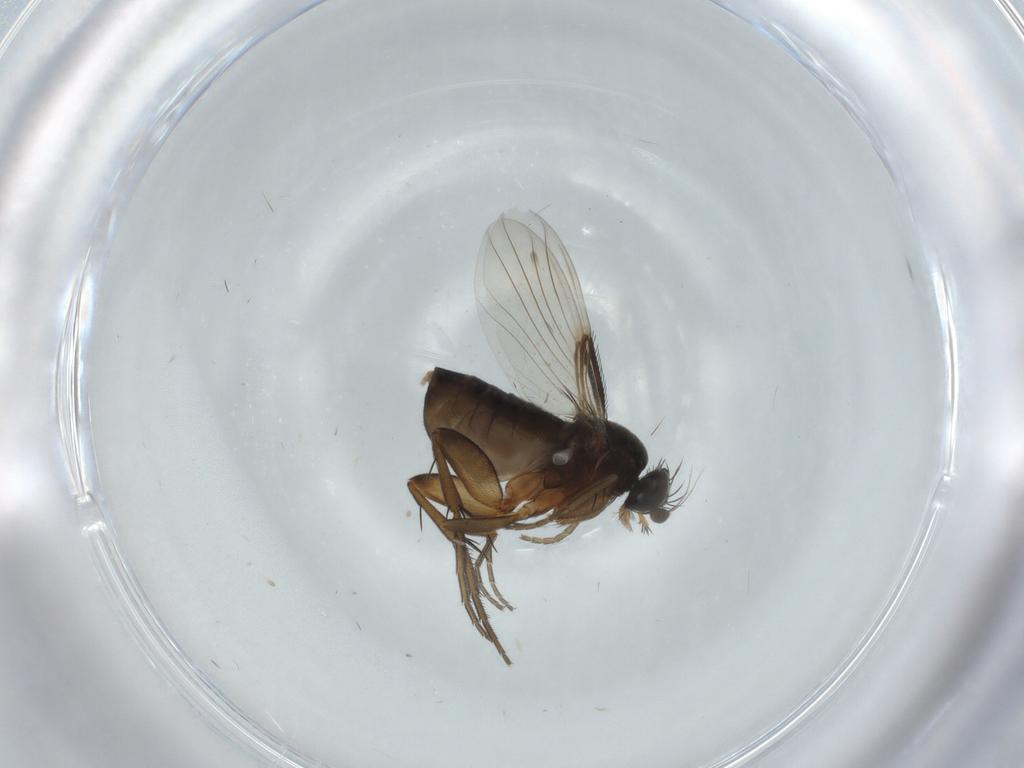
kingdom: Animalia
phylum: Arthropoda
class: Insecta
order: Diptera
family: Phoridae
